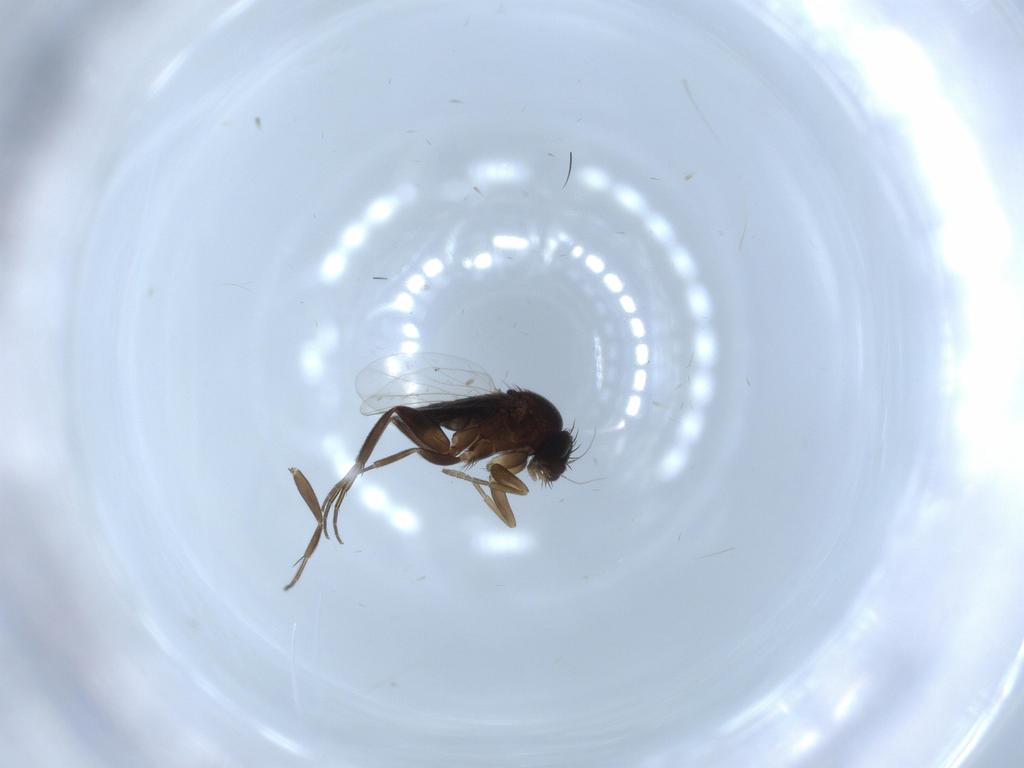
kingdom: Animalia
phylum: Arthropoda
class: Insecta
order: Diptera
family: Phoridae
